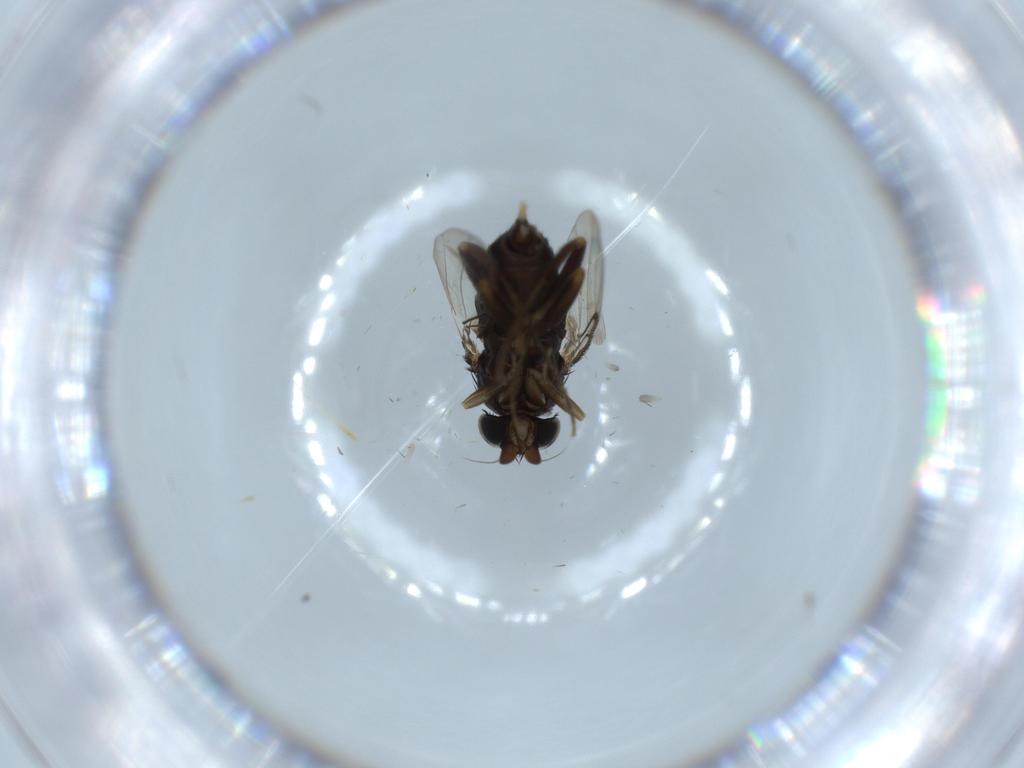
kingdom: Animalia
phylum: Arthropoda
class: Insecta
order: Diptera
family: Phoridae
